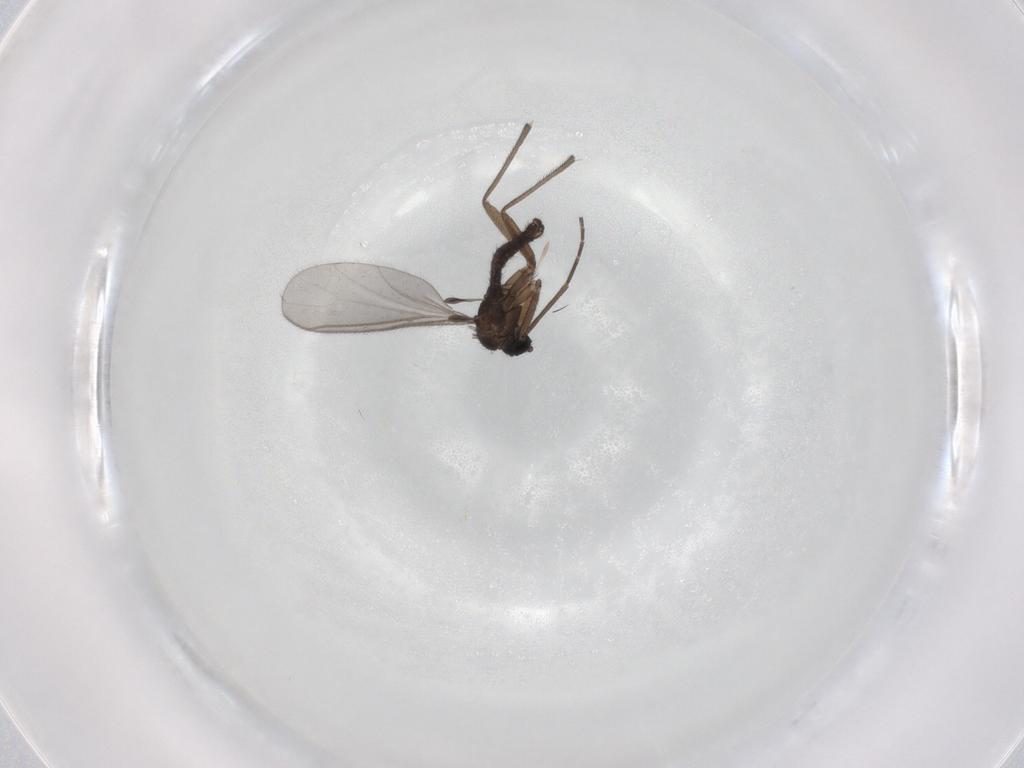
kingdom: Animalia
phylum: Arthropoda
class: Insecta
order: Diptera
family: Sciaridae
